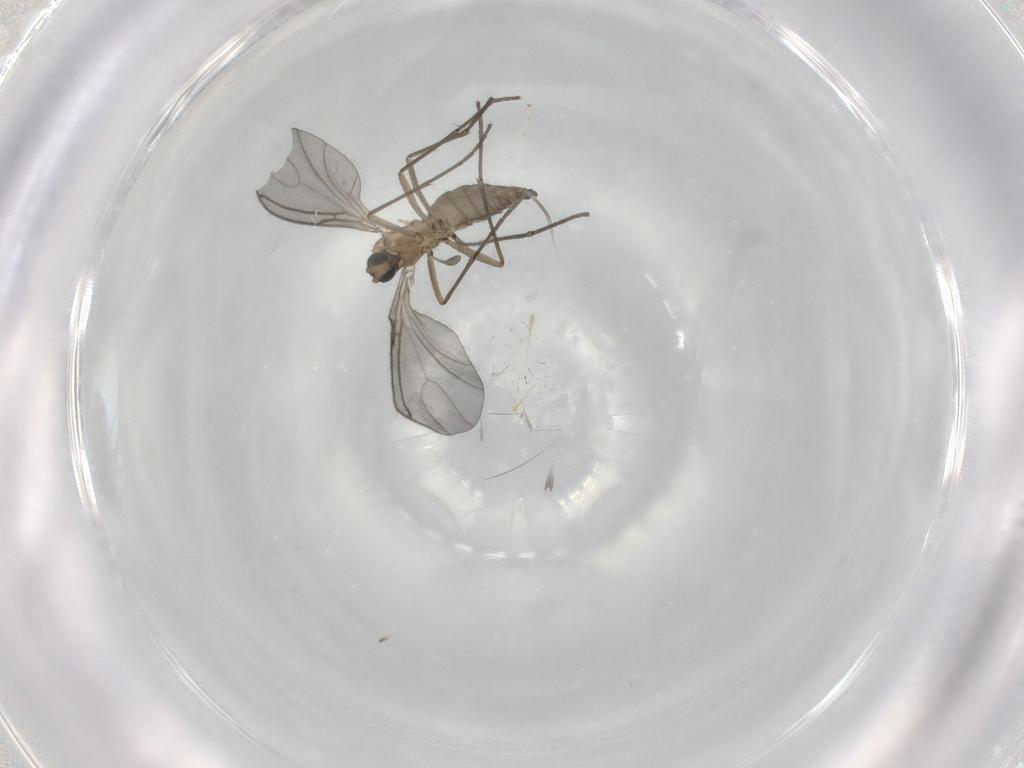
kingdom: Animalia
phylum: Arthropoda
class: Insecta
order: Diptera
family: Sciaridae
